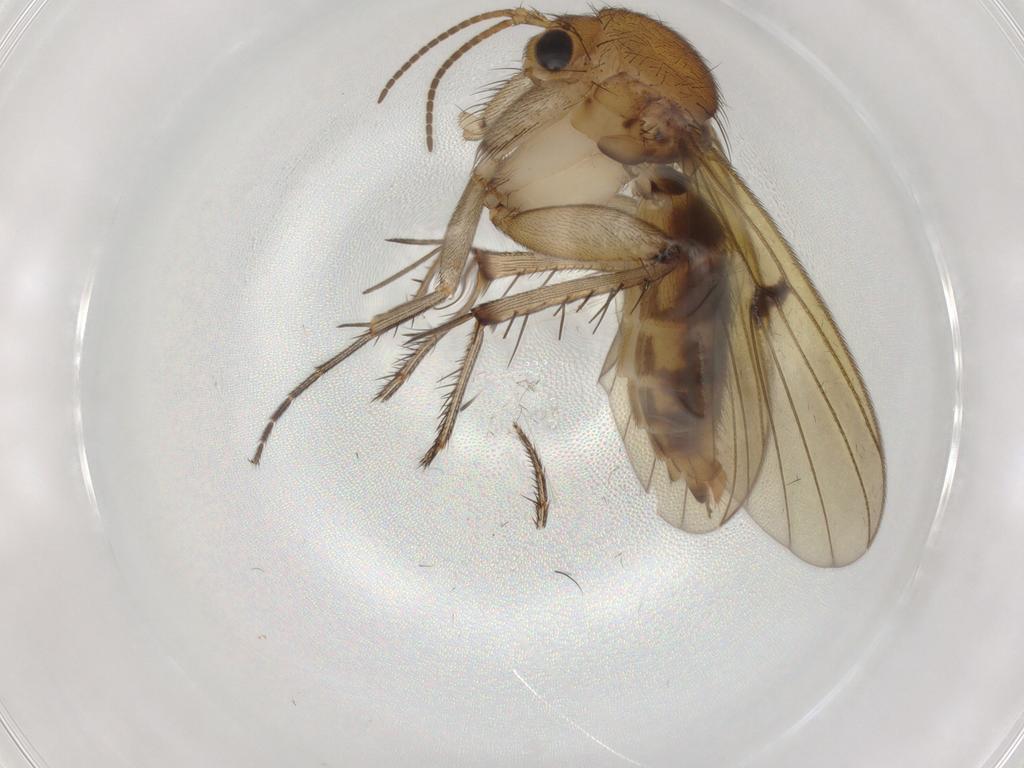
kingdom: Animalia
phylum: Arthropoda
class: Insecta
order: Diptera
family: Mycetophilidae
